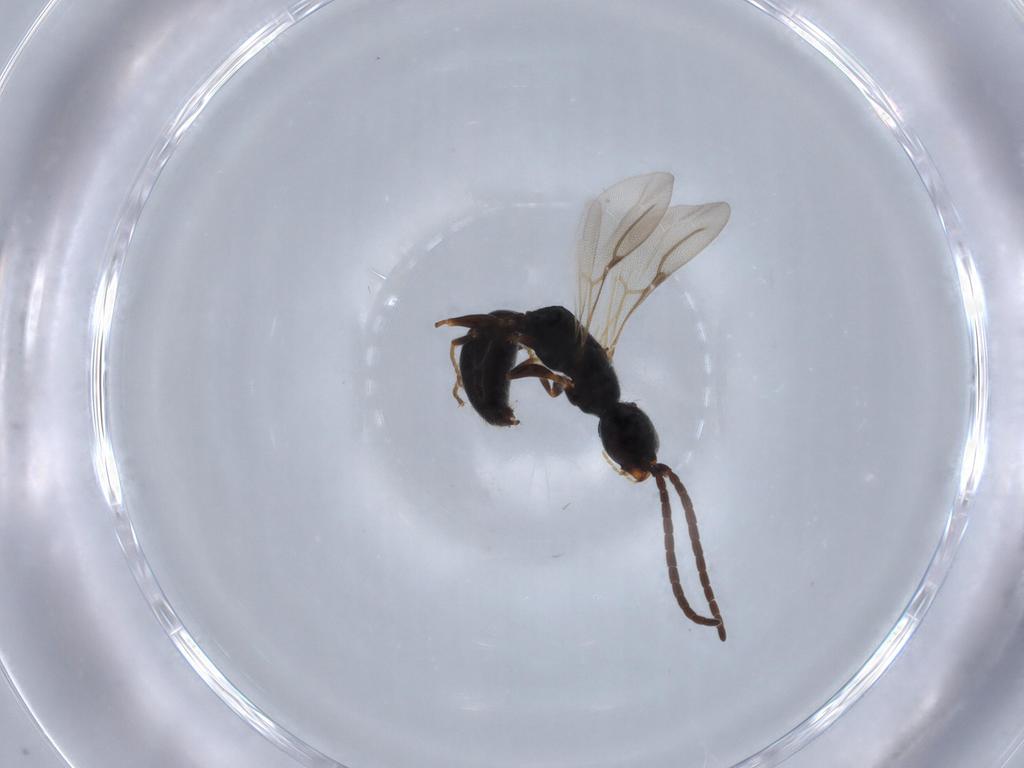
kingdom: Animalia
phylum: Arthropoda
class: Insecta
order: Hymenoptera
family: Bethylidae
